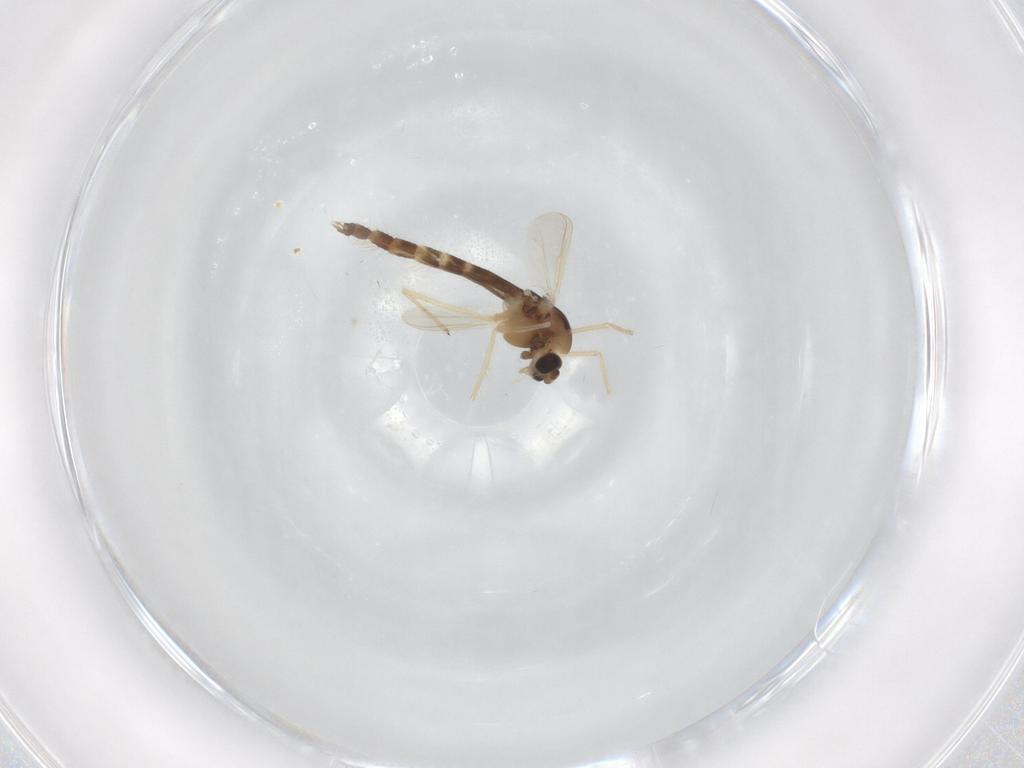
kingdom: Animalia
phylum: Arthropoda
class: Insecta
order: Diptera
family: Chironomidae
